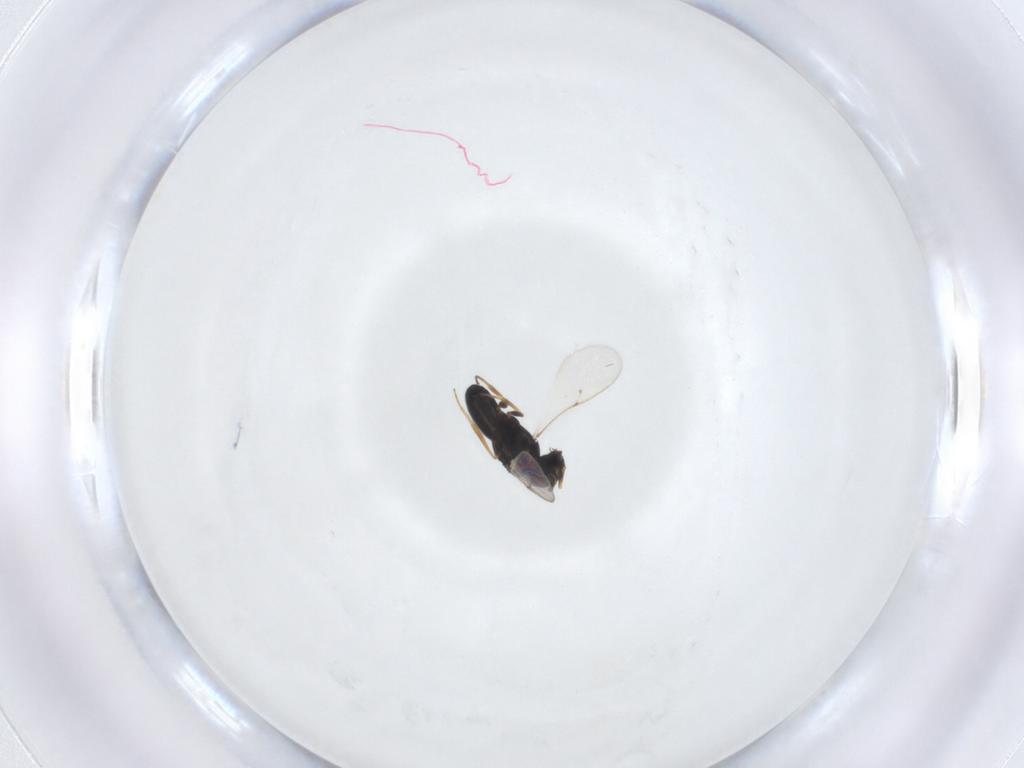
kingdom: Animalia
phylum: Arthropoda
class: Insecta
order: Hymenoptera
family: Scelionidae
